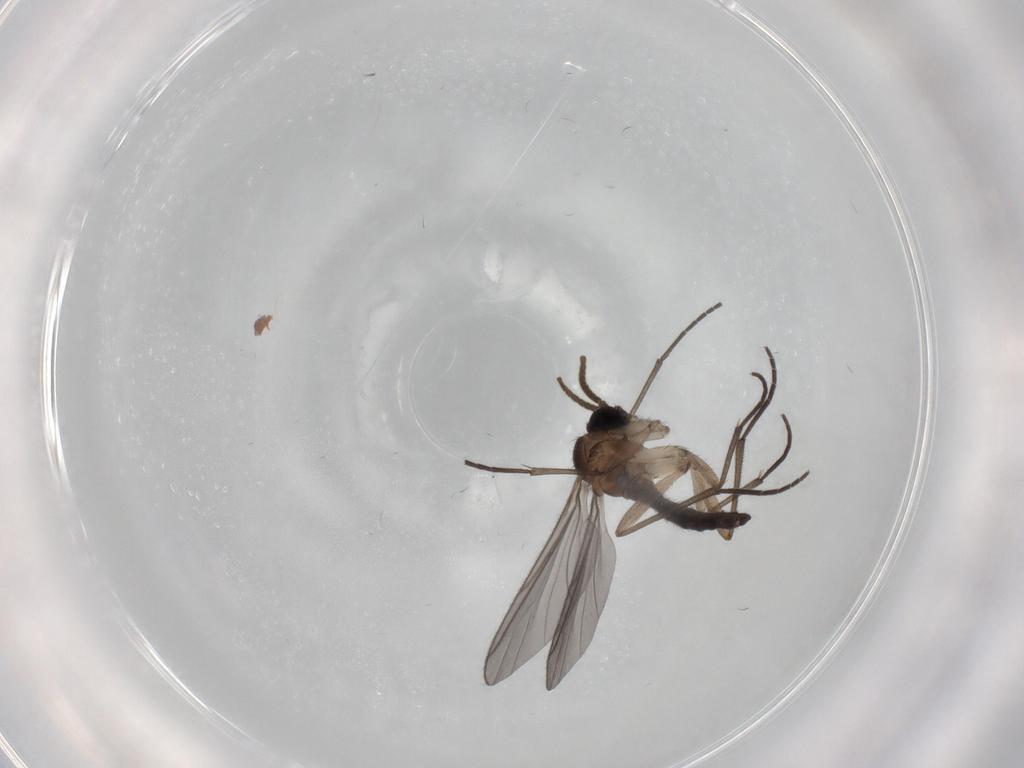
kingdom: Animalia
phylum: Arthropoda
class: Insecta
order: Diptera
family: Sciaridae
